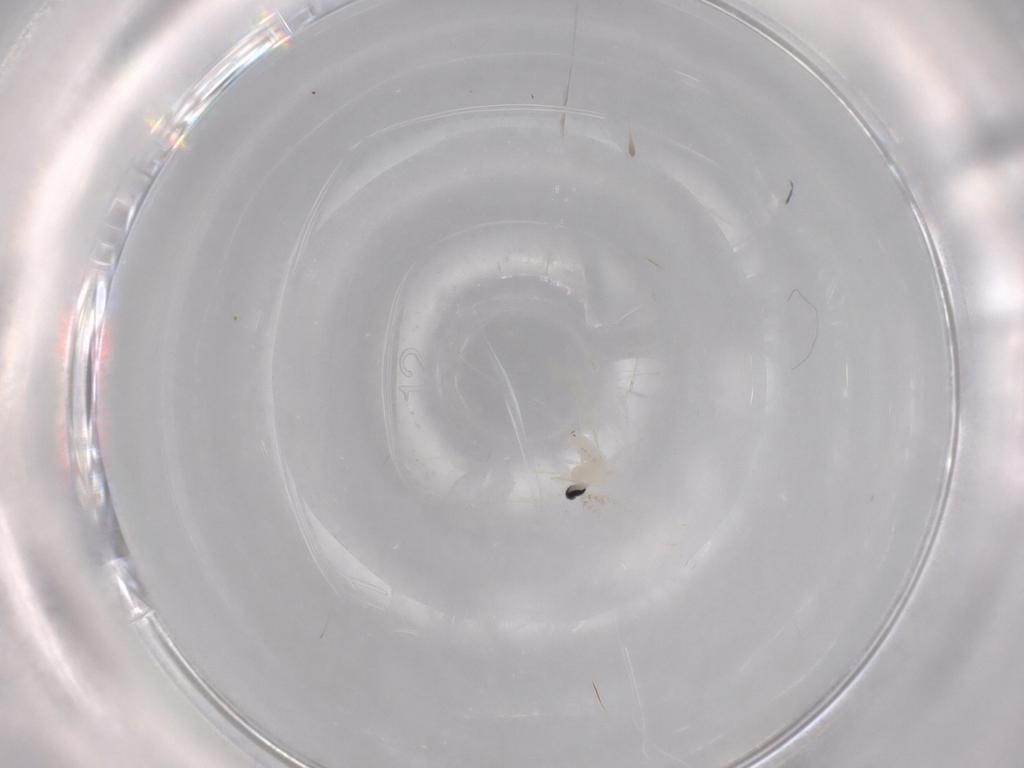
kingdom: Animalia
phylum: Arthropoda
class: Insecta
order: Diptera
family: Cecidomyiidae
